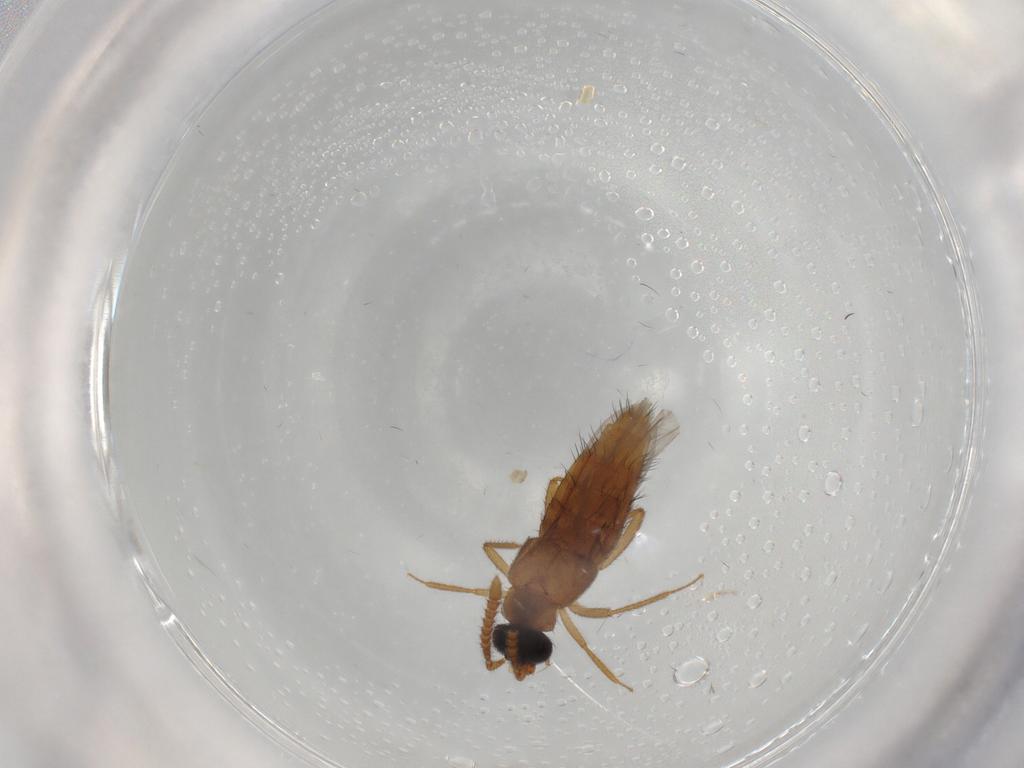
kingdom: Animalia
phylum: Arthropoda
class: Insecta
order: Coleoptera
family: Staphylinidae
